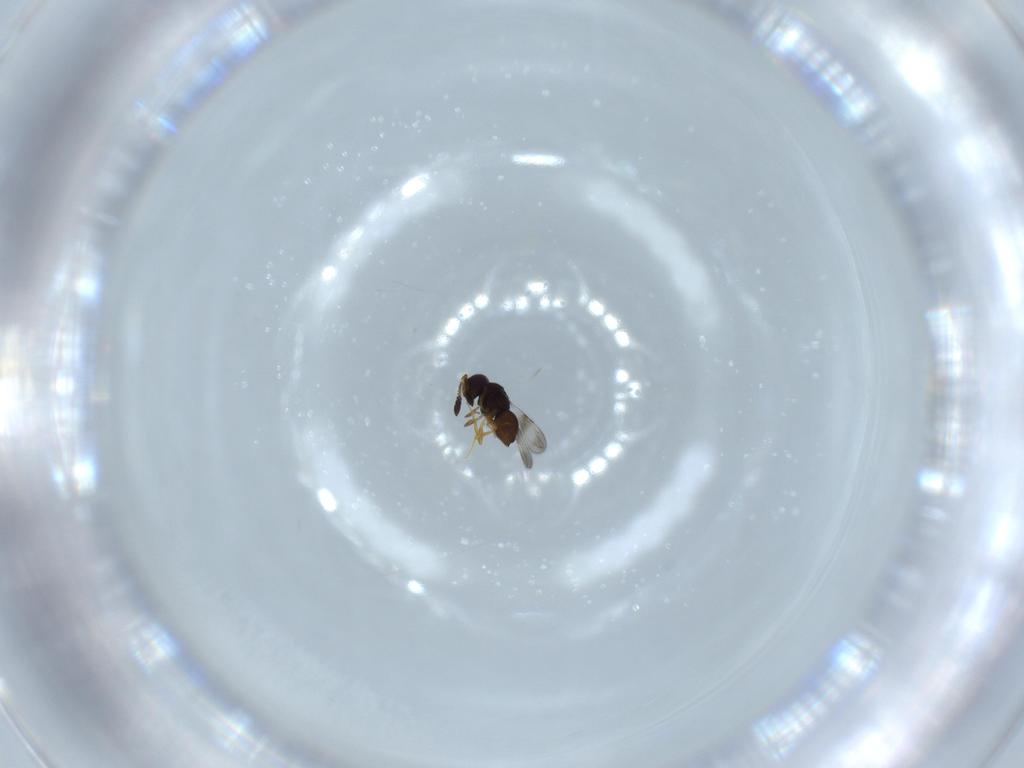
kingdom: Animalia
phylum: Arthropoda
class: Insecta
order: Hymenoptera
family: Ceraphronidae
